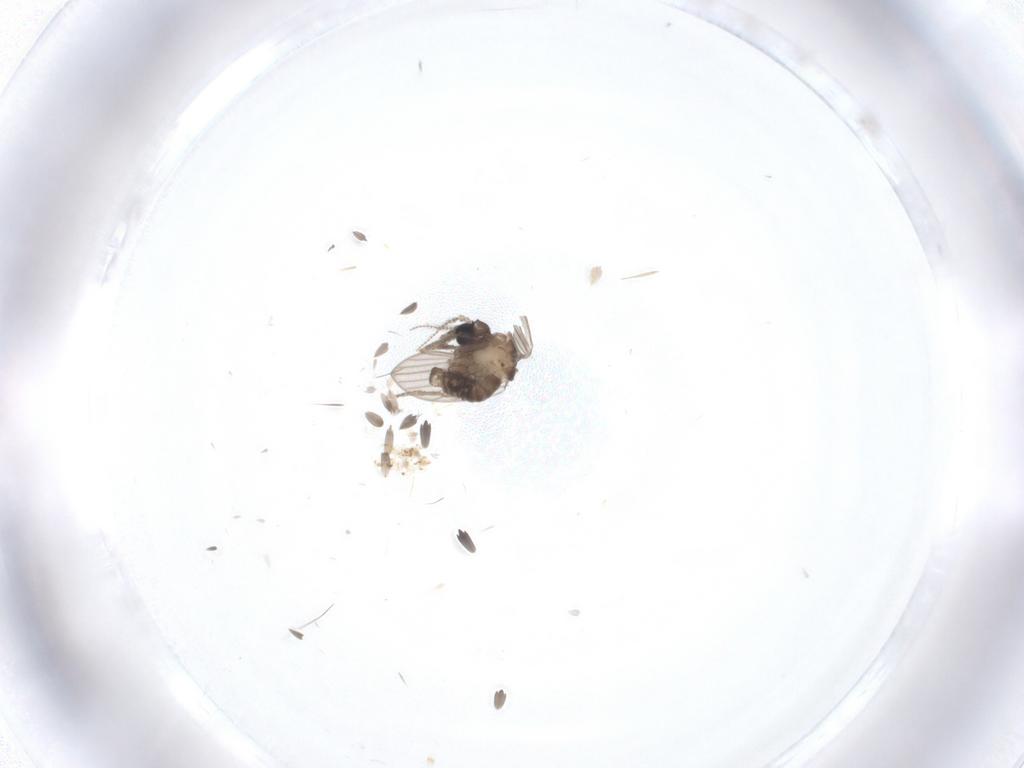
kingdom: Animalia
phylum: Arthropoda
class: Insecta
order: Diptera
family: Psychodidae
